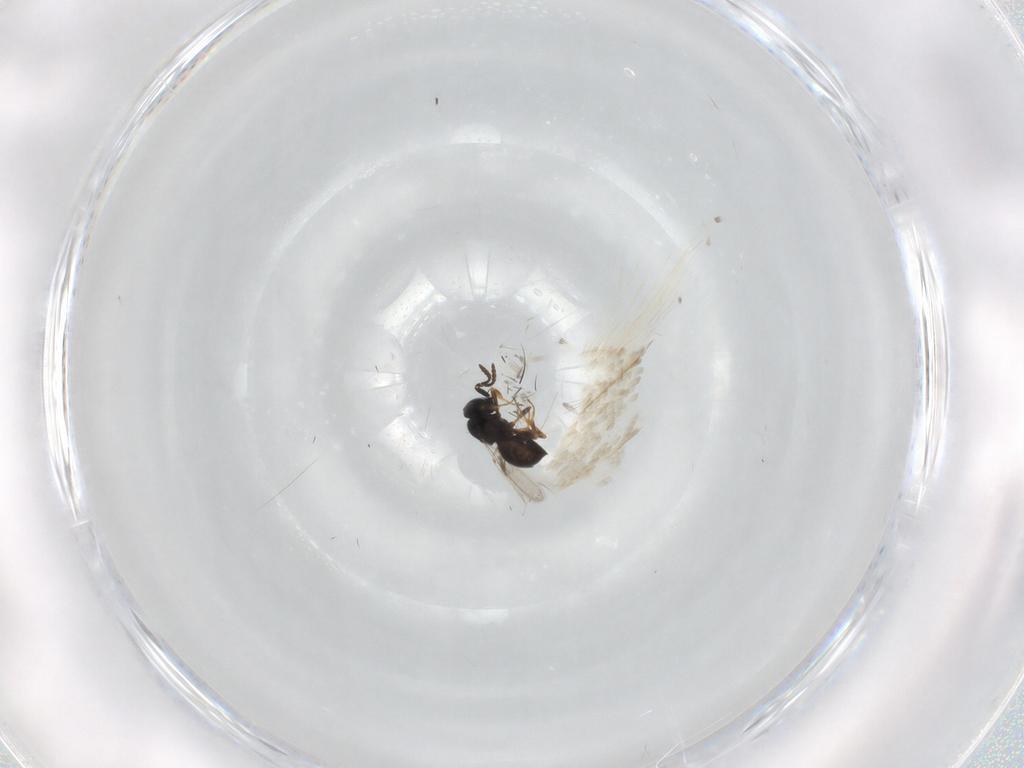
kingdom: Animalia
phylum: Arthropoda
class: Insecta
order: Hymenoptera
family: Scelionidae
